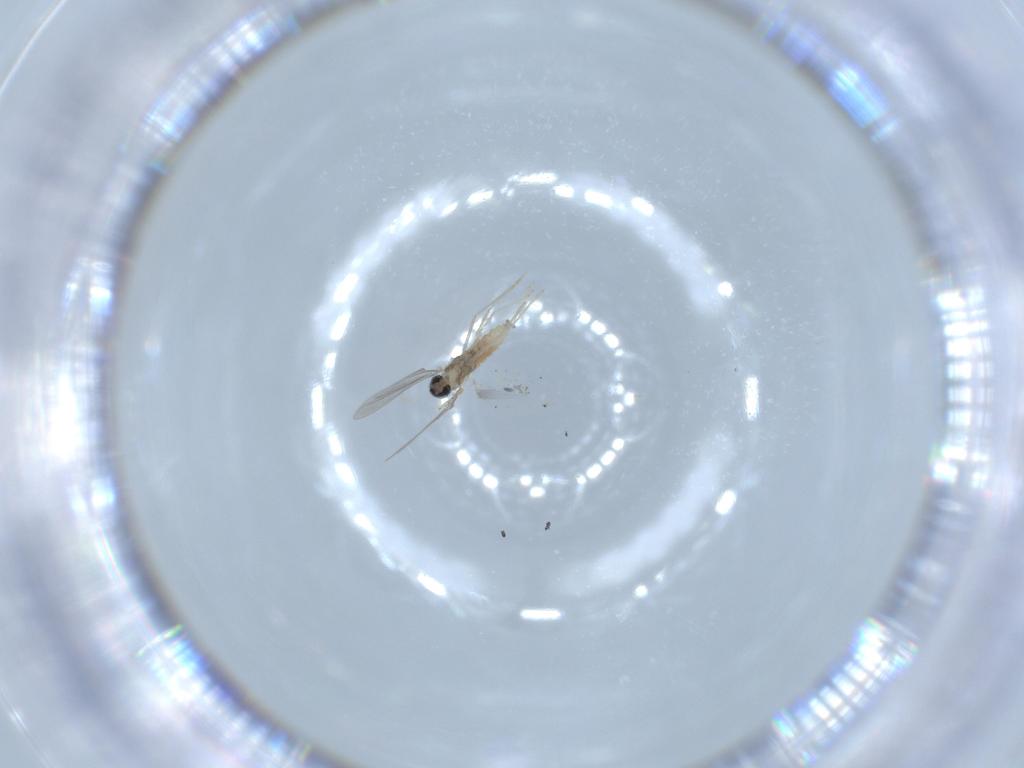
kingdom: Animalia
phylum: Arthropoda
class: Insecta
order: Diptera
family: Cecidomyiidae
